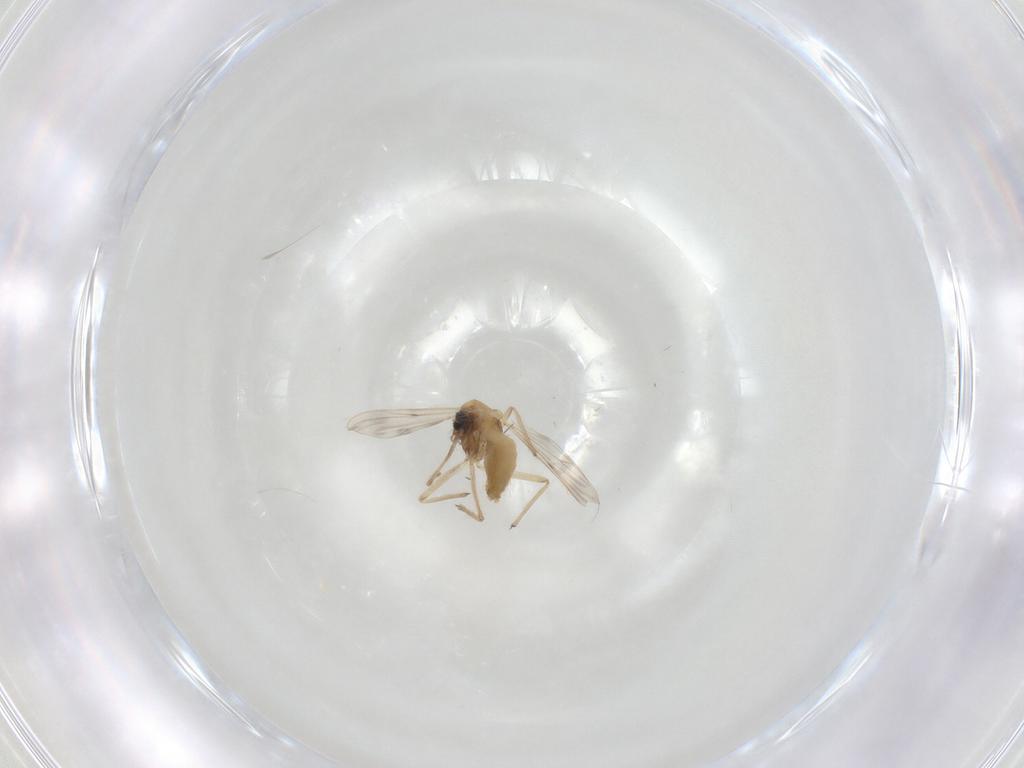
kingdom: Animalia
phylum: Arthropoda
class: Insecta
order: Diptera
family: Chironomidae
